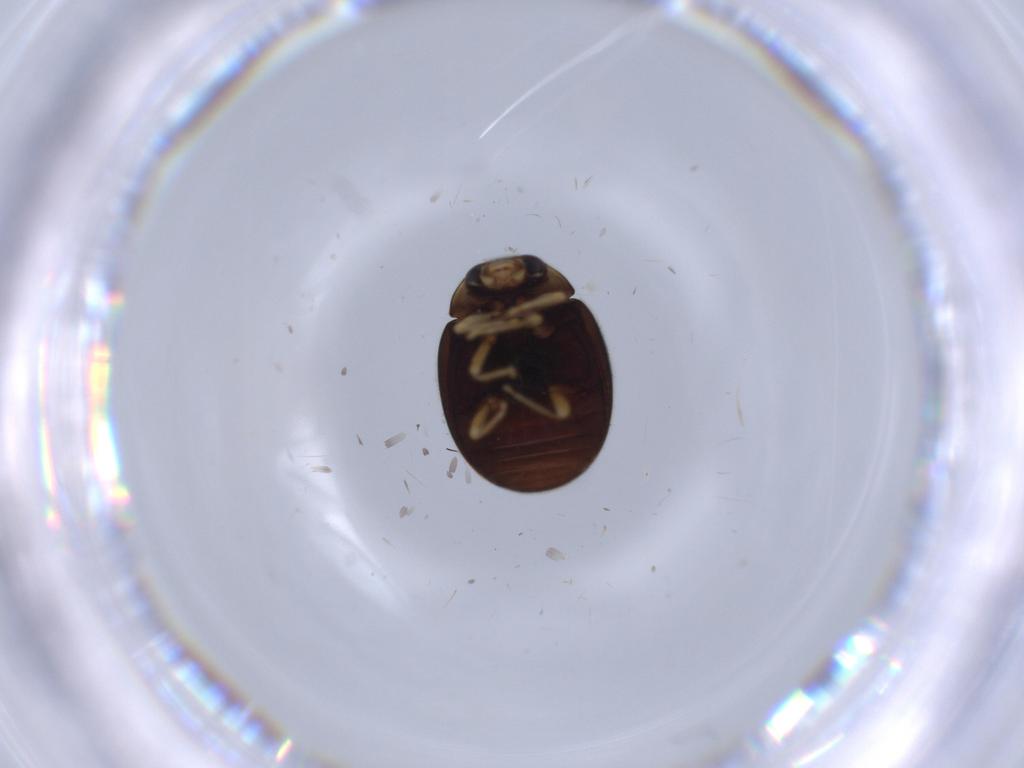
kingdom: Animalia
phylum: Arthropoda
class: Insecta
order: Coleoptera
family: Coccinellidae
